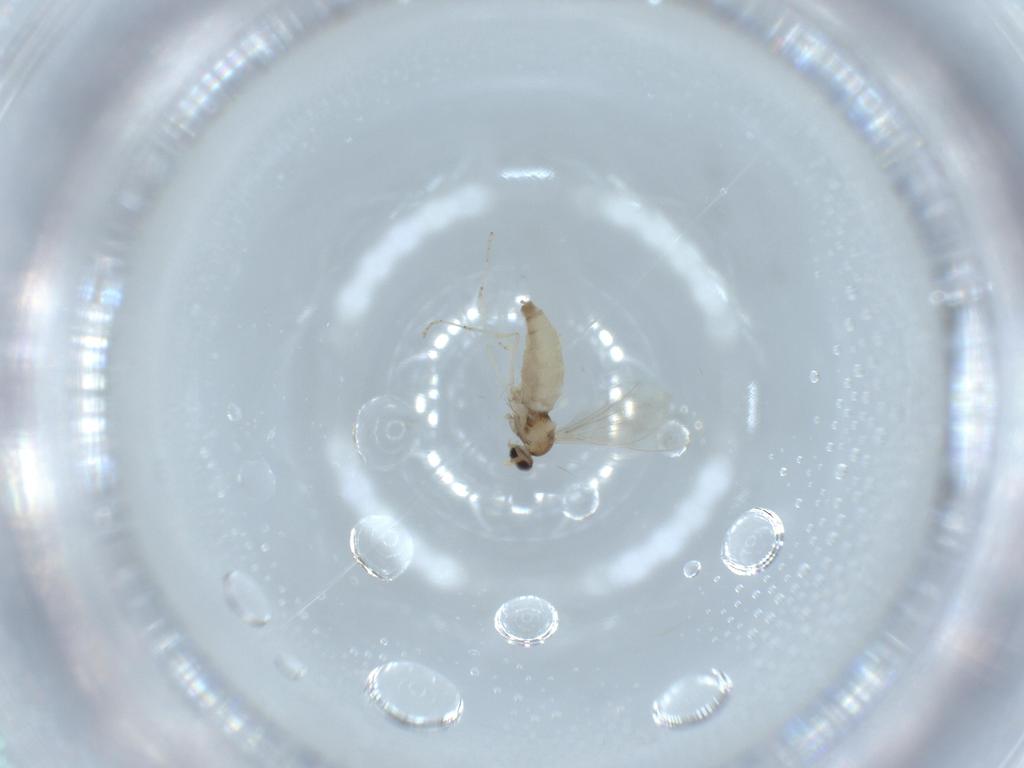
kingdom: Animalia
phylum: Arthropoda
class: Insecta
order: Diptera
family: Cecidomyiidae
